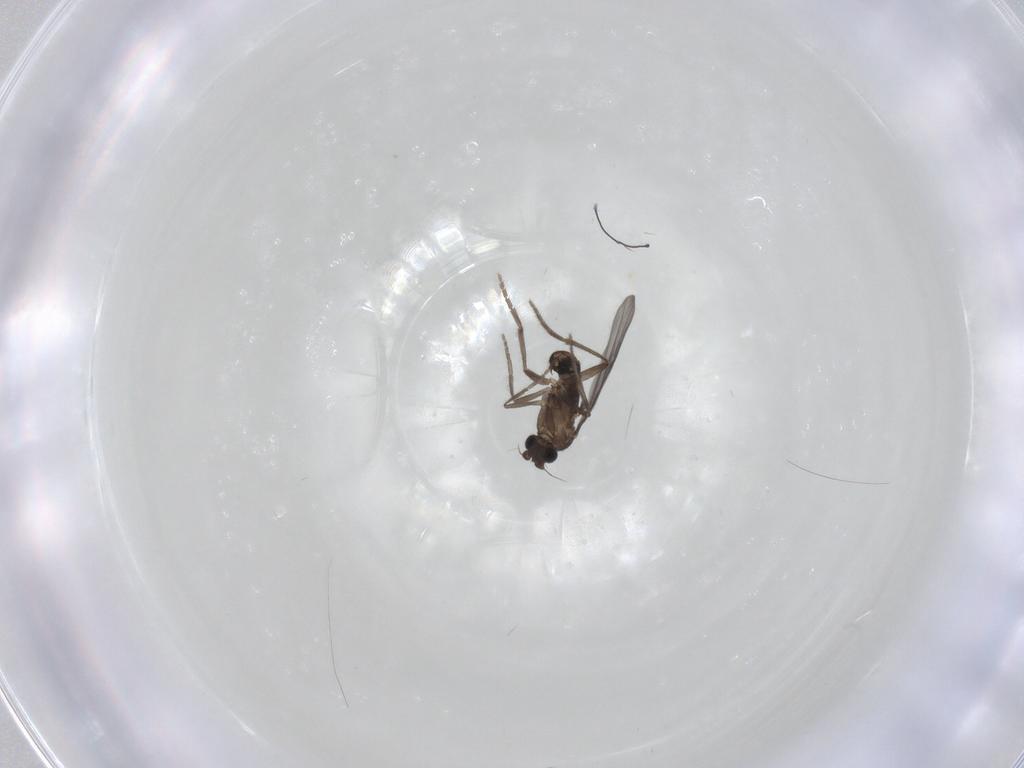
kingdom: Animalia
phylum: Arthropoda
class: Insecta
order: Diptera
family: Phoridae
